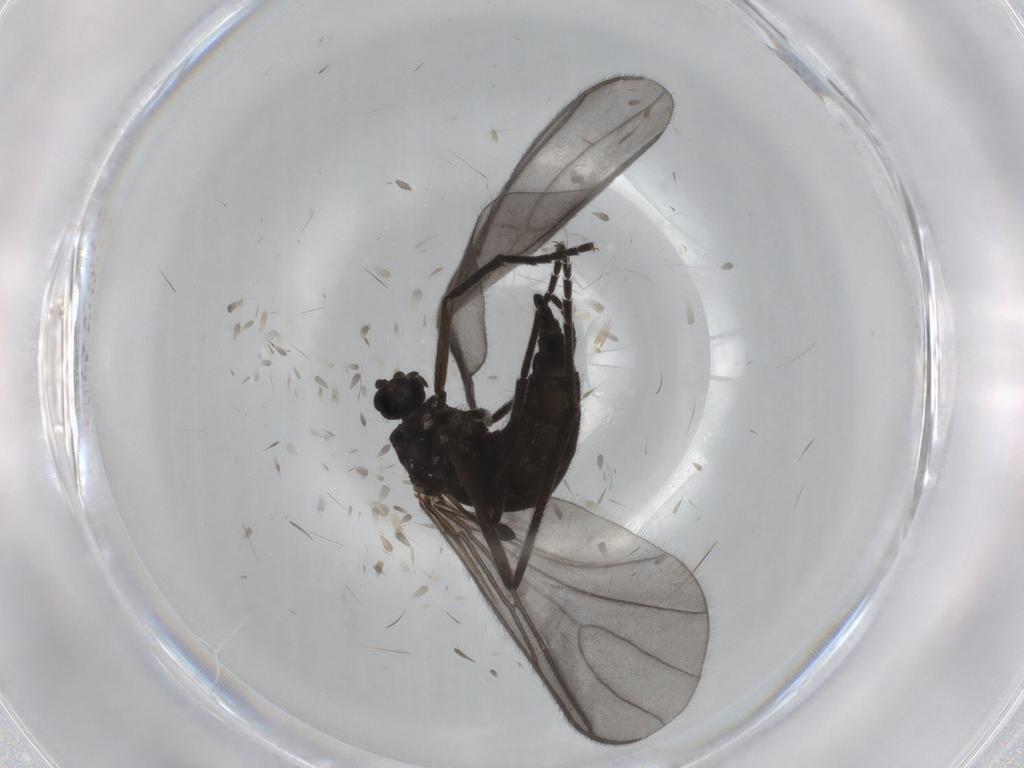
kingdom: Animalia
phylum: Arthropoda
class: Insecta
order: Diptera
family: Sciaridae
